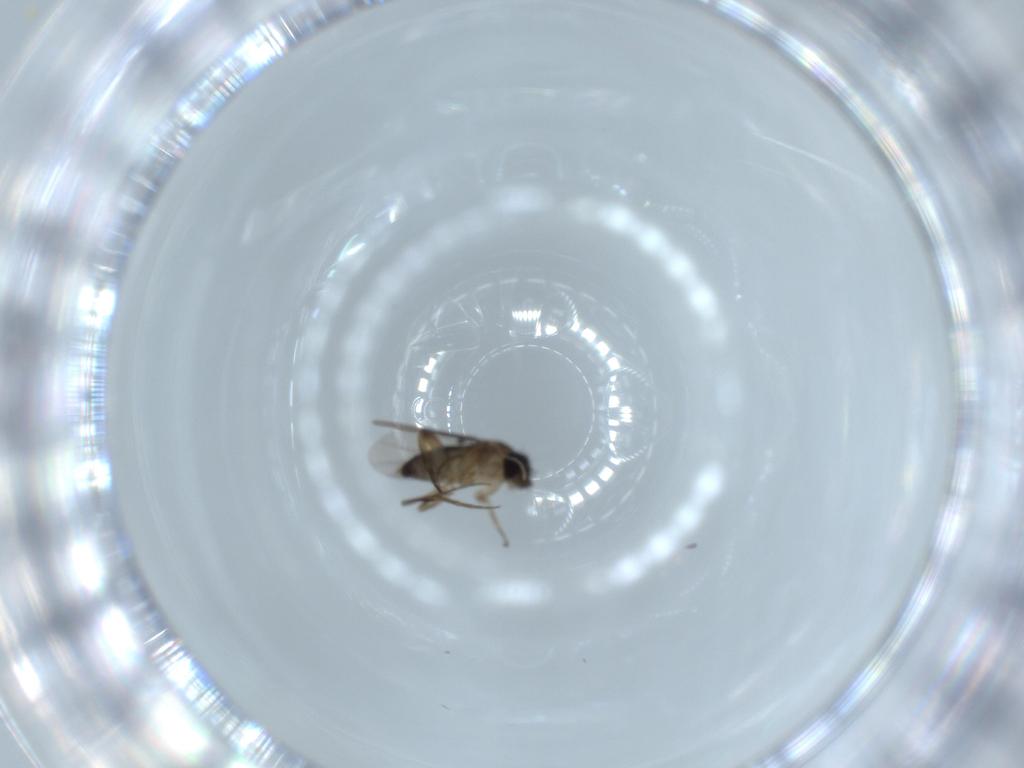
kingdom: Animalia
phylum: Arthropoda
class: Insecta
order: Diptera
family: Phoridae
